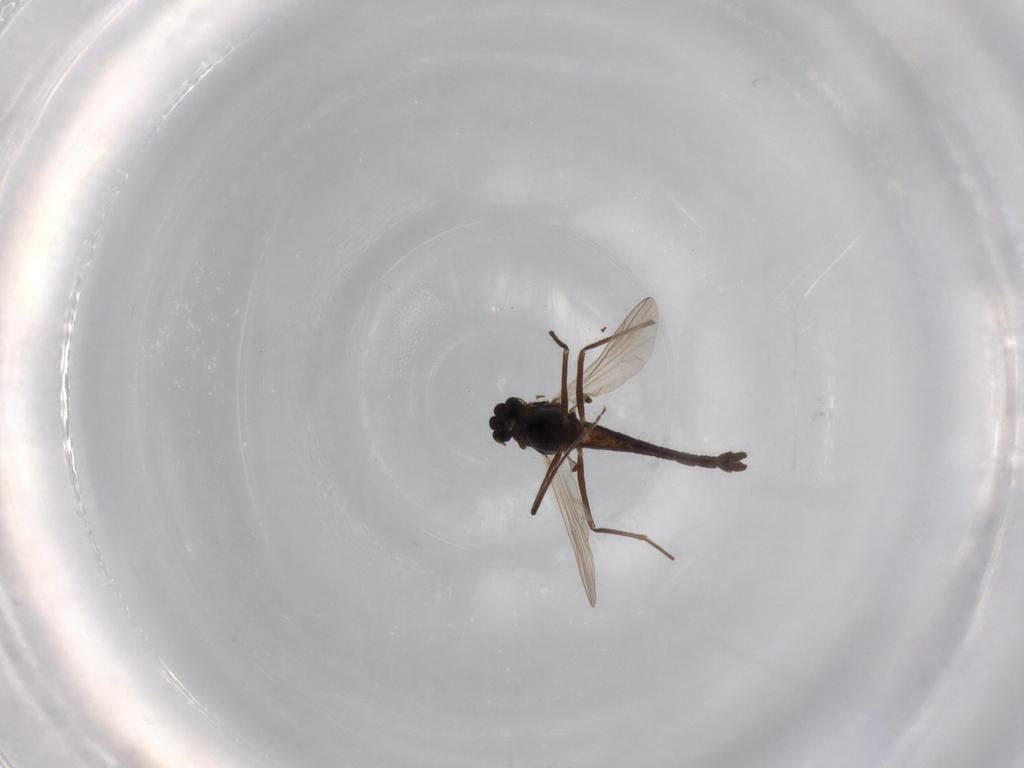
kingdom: Animalia
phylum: Arthropoda
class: Insecta
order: Diptera
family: Chironomidae
